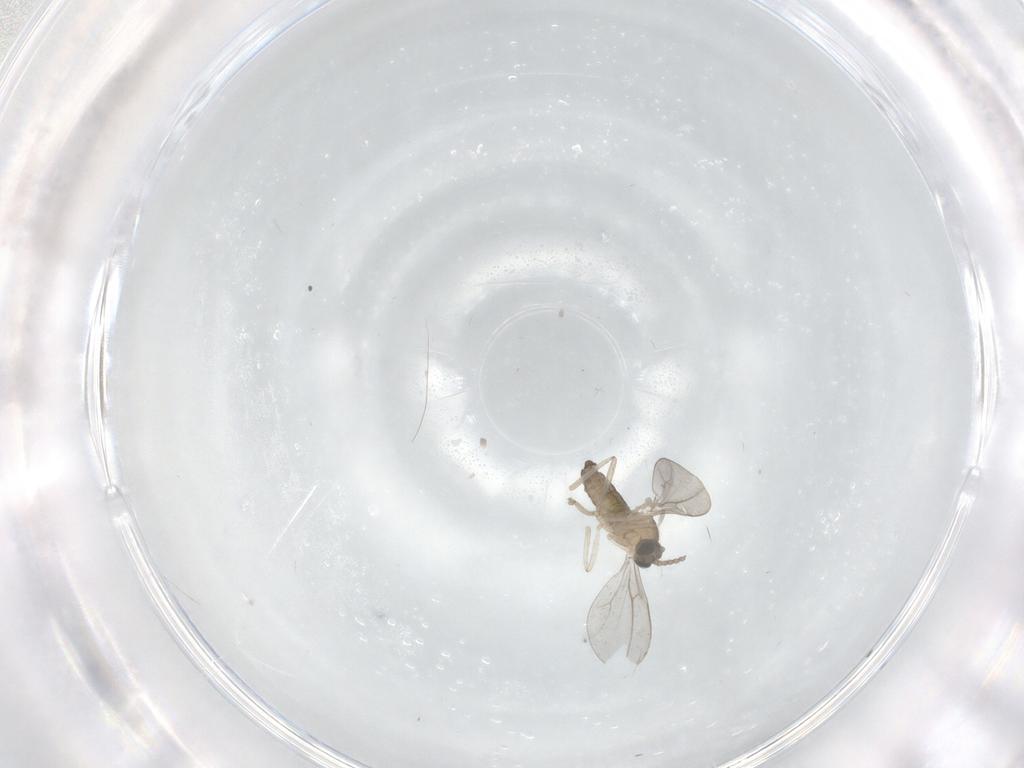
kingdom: Animalia
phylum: Arthropoda
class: Insecta
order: Diptera
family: Cecidomyiidae
